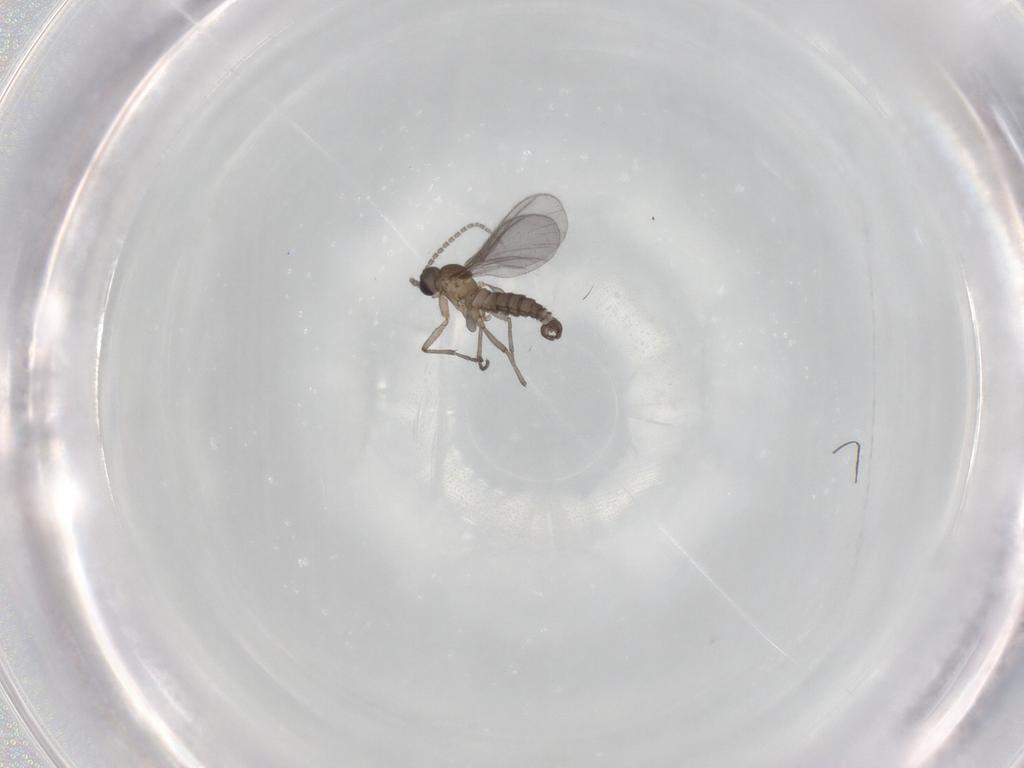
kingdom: Animalia
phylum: Arthropoda
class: Insecta
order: Diptera
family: Sciaridae
